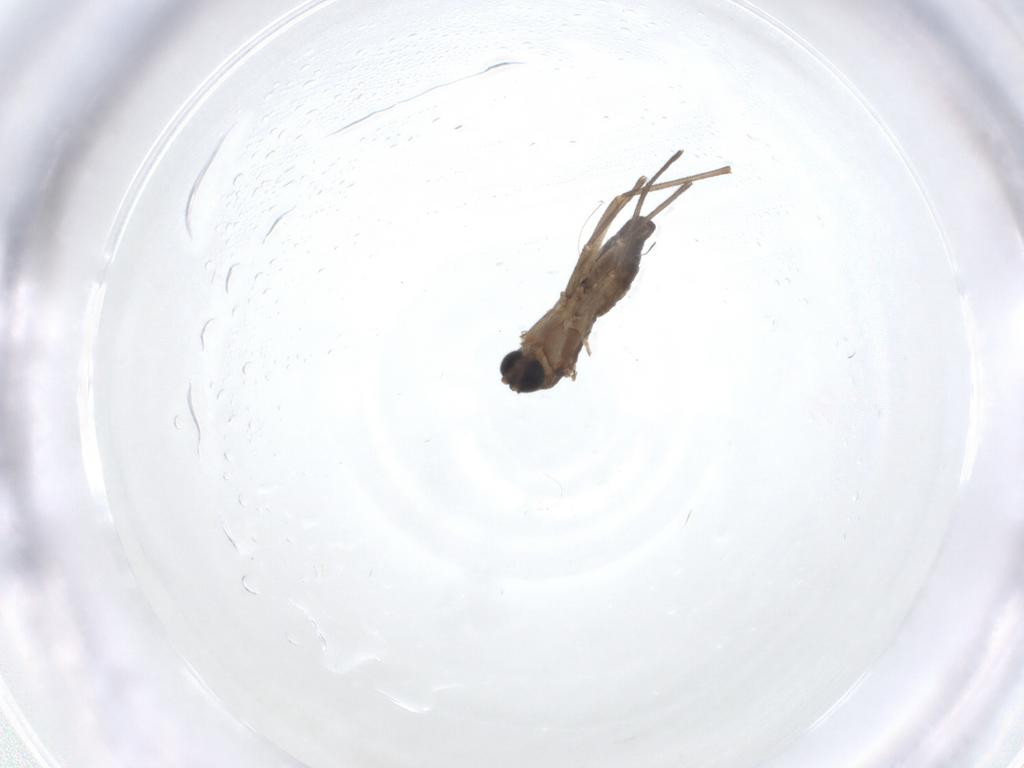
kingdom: Animalia
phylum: Arthropoda
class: Insecta
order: Diptera
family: Sciaridae
